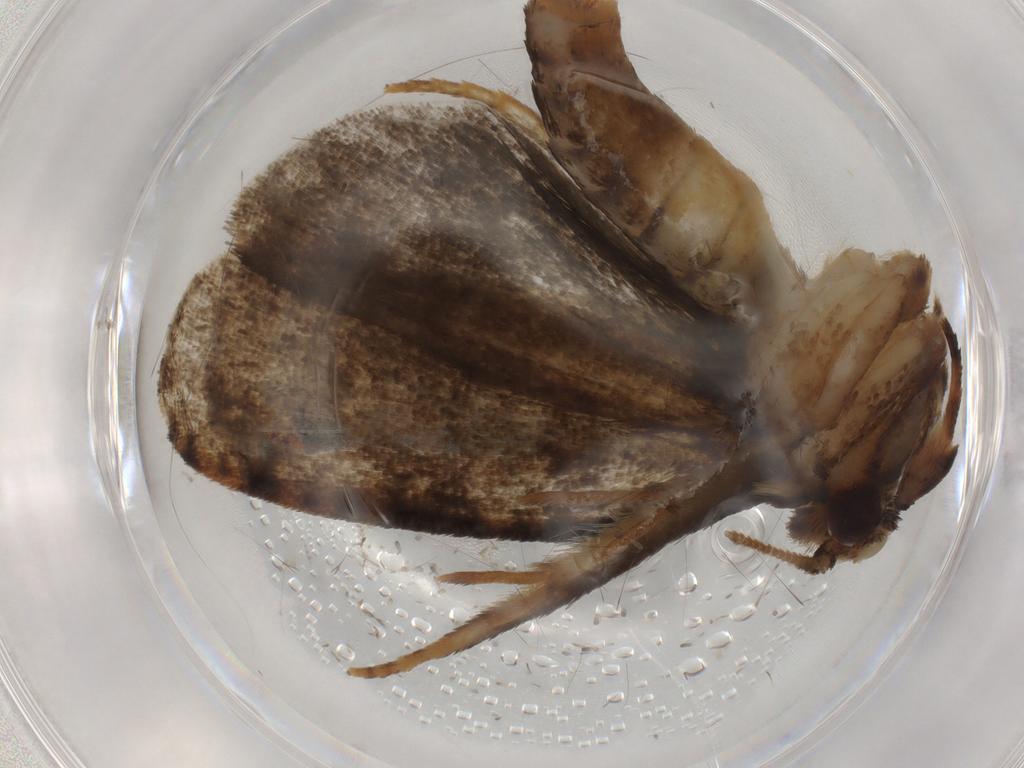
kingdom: Animalia
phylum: Arthropoda
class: Insecta
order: Lepidoptera
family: Tineidae
